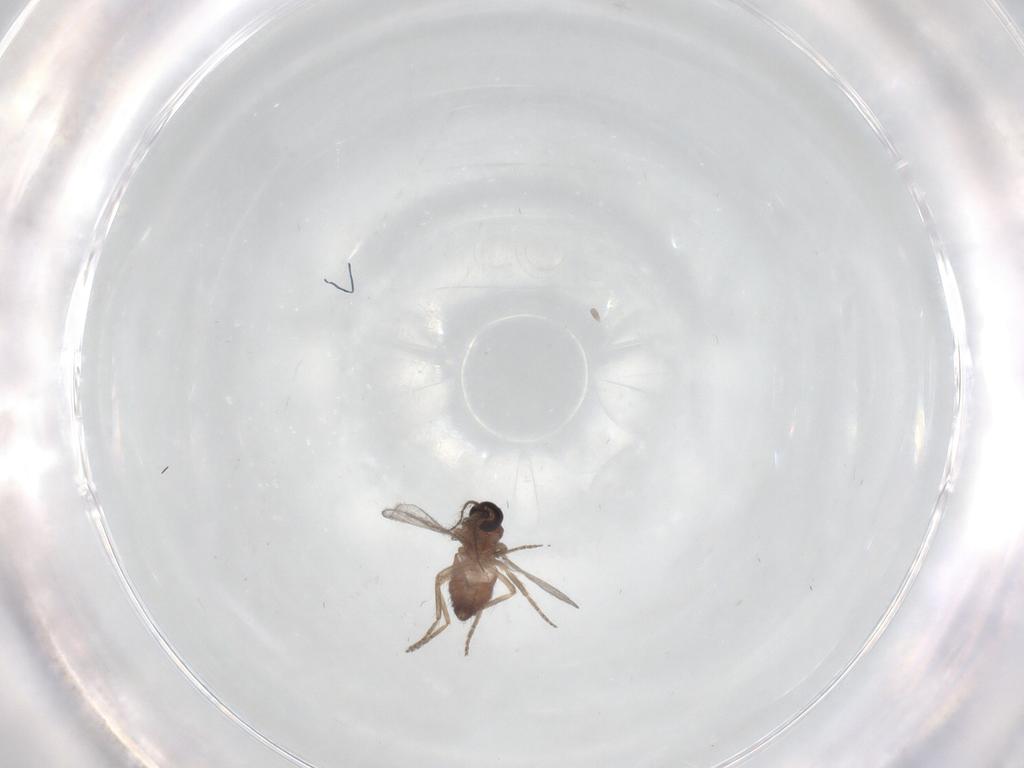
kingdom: Animalia
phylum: Arthropoda
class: Insecta
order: Diptera
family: Ceratopogonidae
